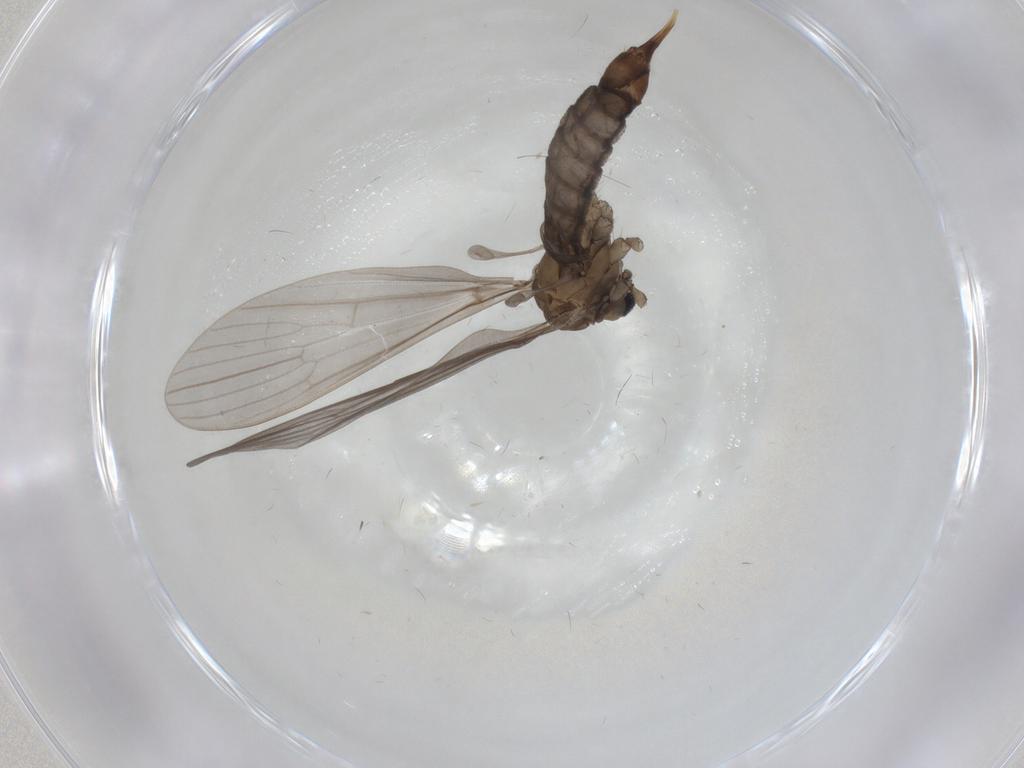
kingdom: Animalia
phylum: Arthropoda
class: Insecta
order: Diptera
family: Limoniidae
